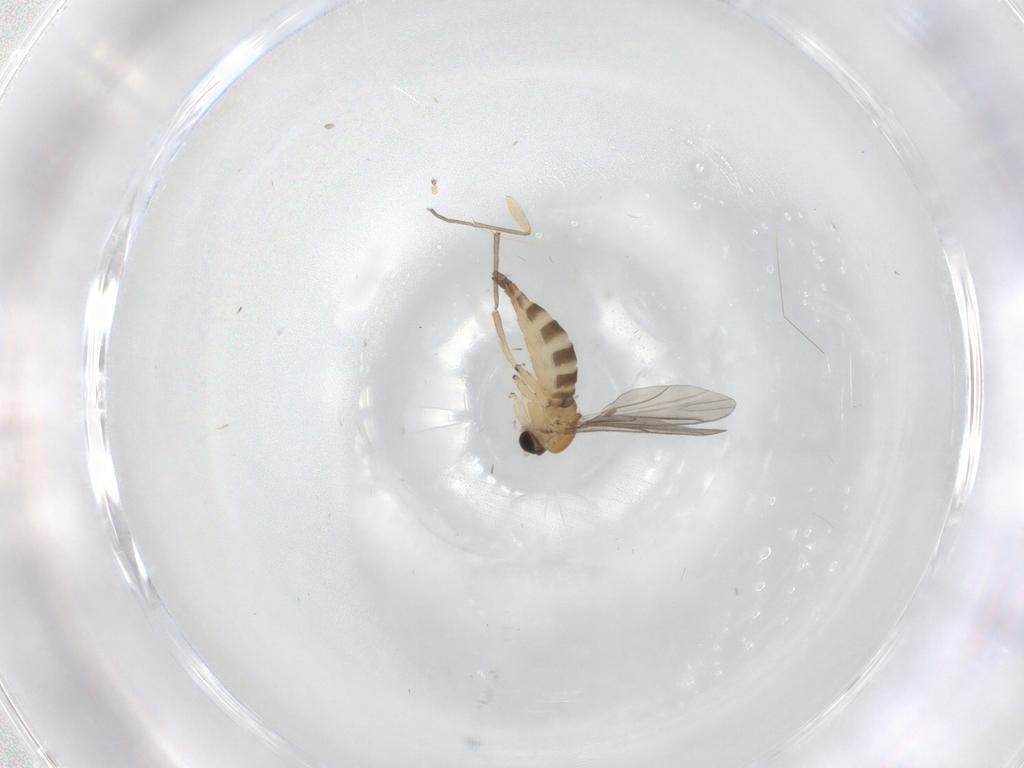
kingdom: Animalia
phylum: Arthropoda
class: Insecta
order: Diptera
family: Sciaridae
